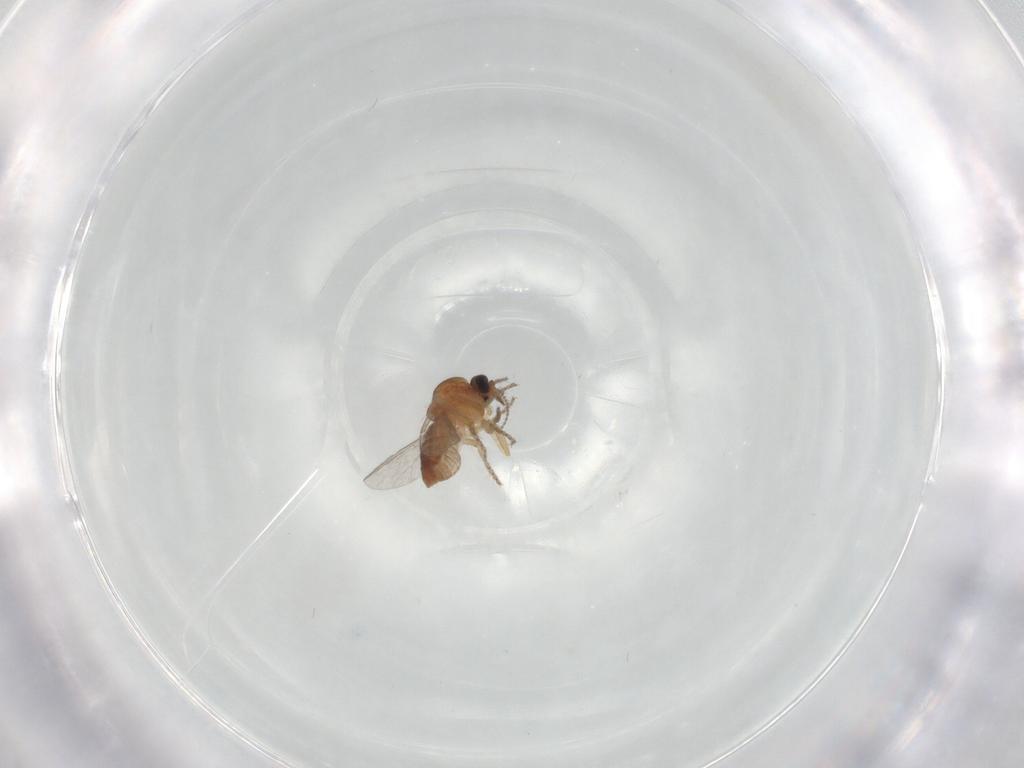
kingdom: Animalia
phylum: Arthropoda
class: Insecta
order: Diptera
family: Ceratopogonidae
